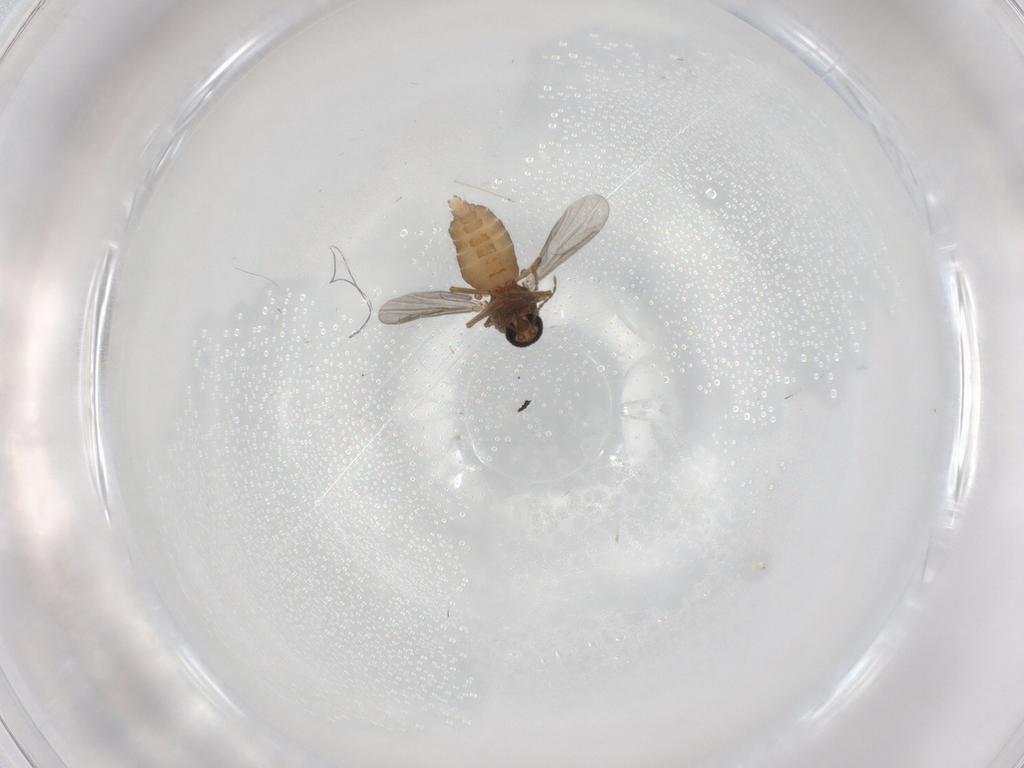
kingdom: Animalia
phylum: Arthropoda
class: Insecta
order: Diptera
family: Ceratopogonidae
